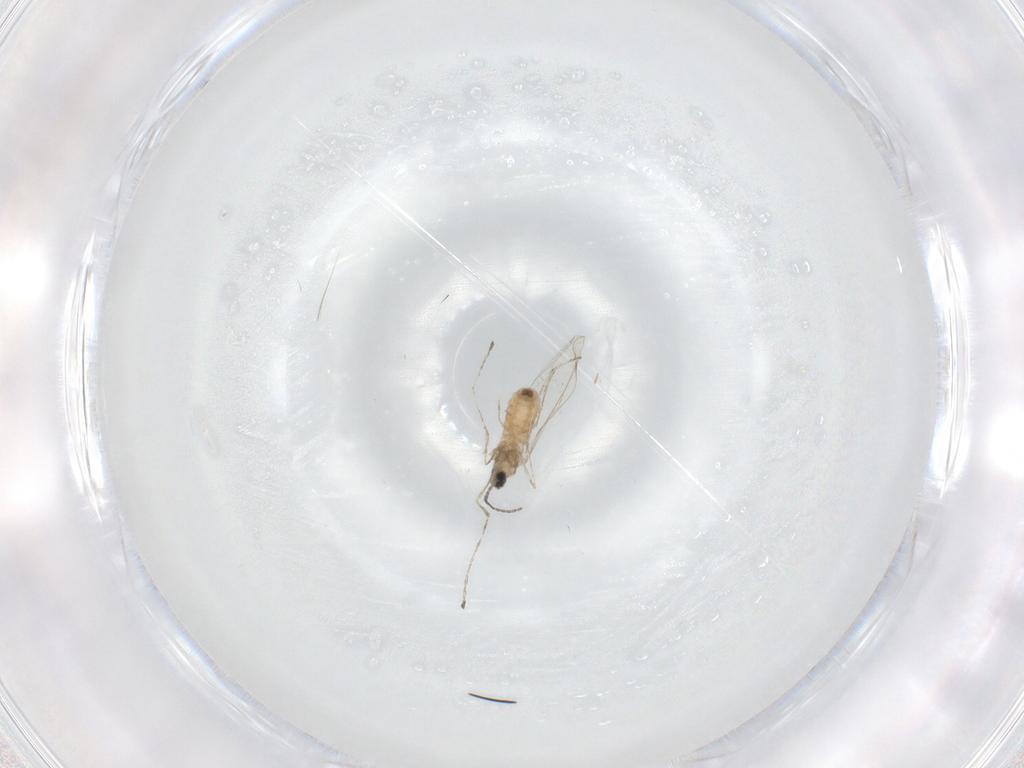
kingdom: Animalia
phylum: Arthropoda
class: Insecta
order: Diptera
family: Cecidomyiidae
